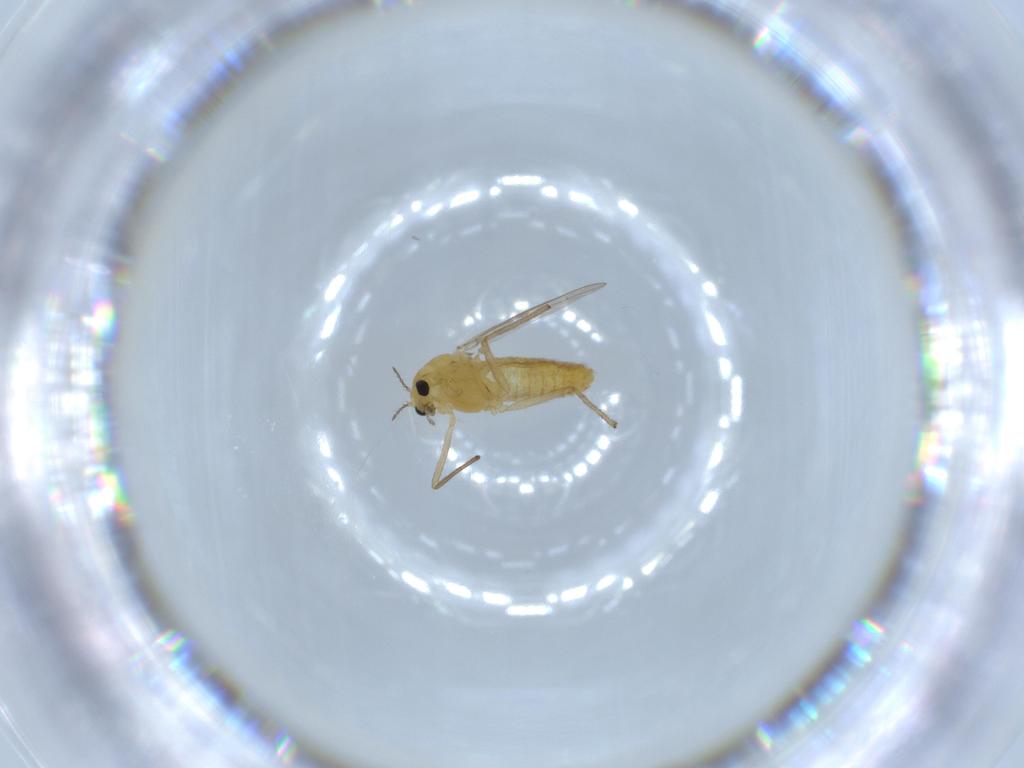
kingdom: Animalia
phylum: Arthropoda
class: Insecta
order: Diptera
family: Chironomidae
